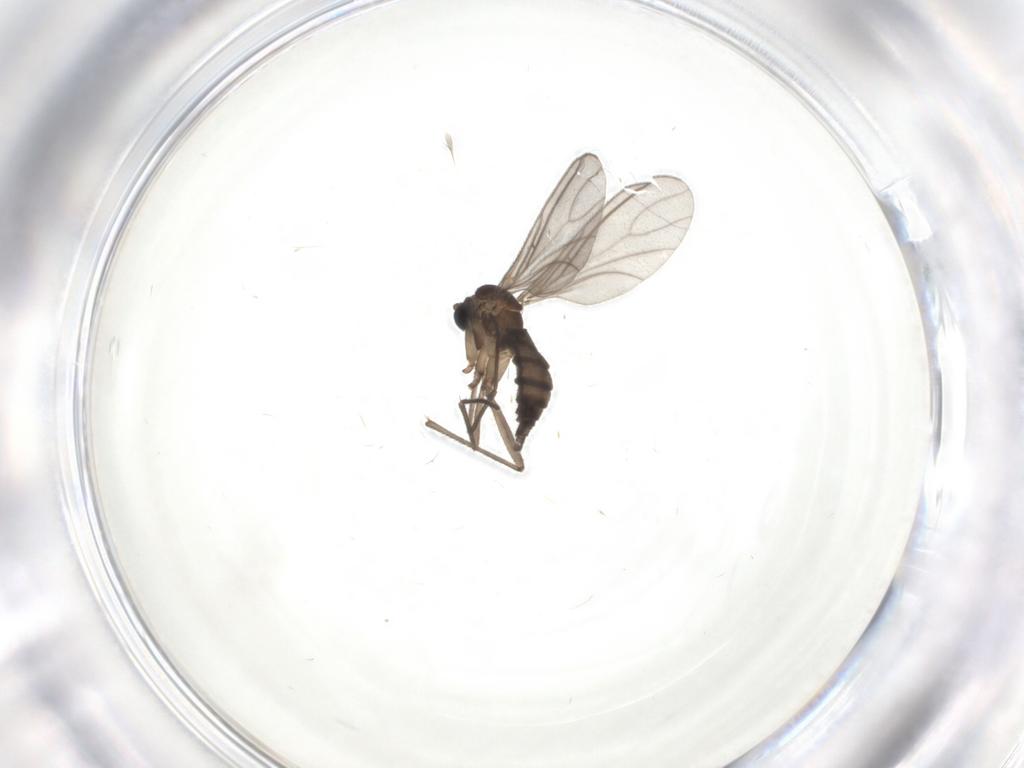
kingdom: Animalia
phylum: Arthropoda
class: Insecta
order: Diptera
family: Sciaridae
